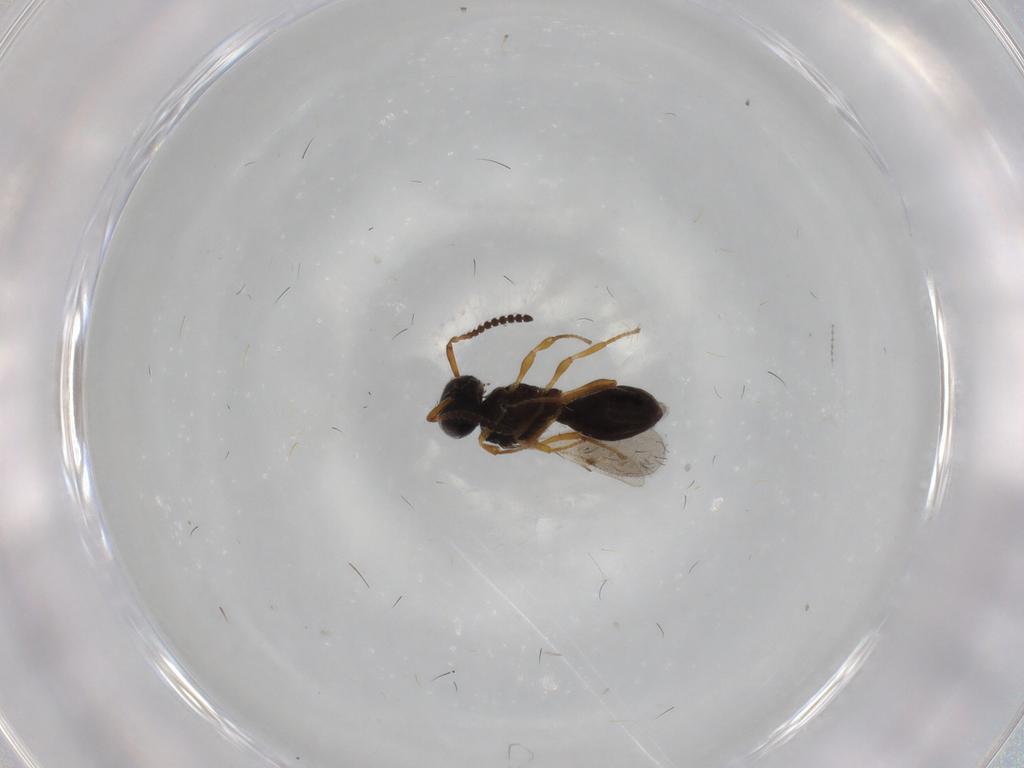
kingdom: Animalia
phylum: Arthropoda
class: Insecta
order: Hymenoptera
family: Scelionidae
